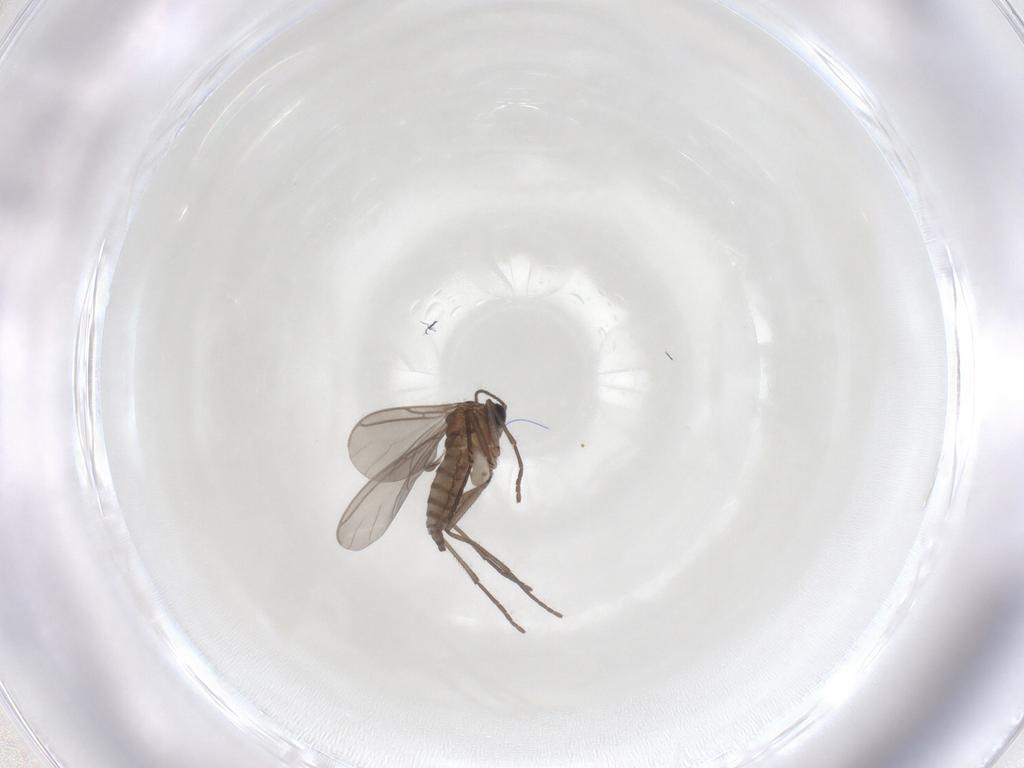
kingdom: Animalia
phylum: Arthropoda
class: Insecta
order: Diptera
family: Sciaridae
